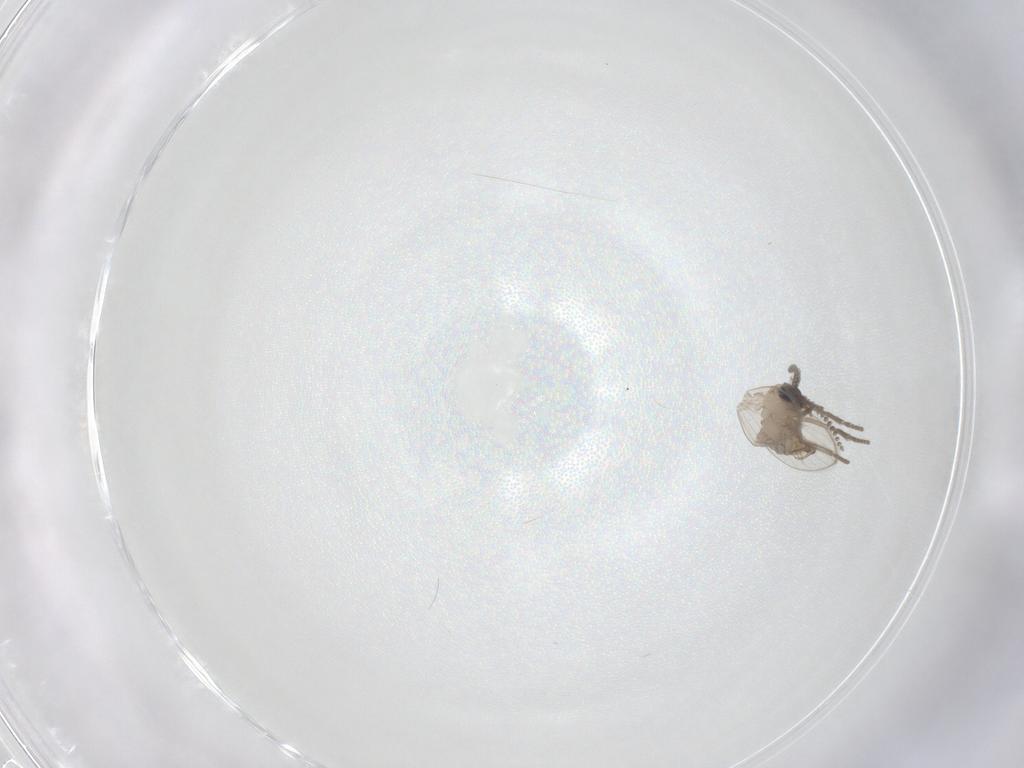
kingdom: Animalia
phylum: Arthropoda
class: Insecta
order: Diptera
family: Psychodidae
